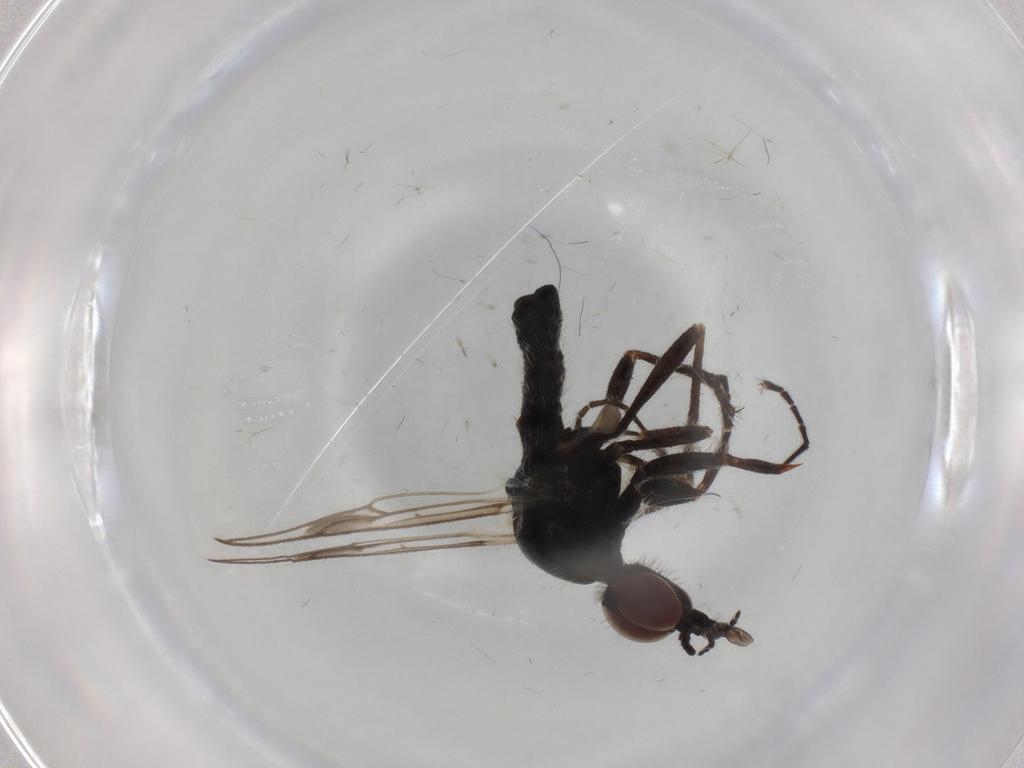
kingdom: Animalia
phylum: Arthropoda
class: Insecta
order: Diptera
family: Bibionidae
